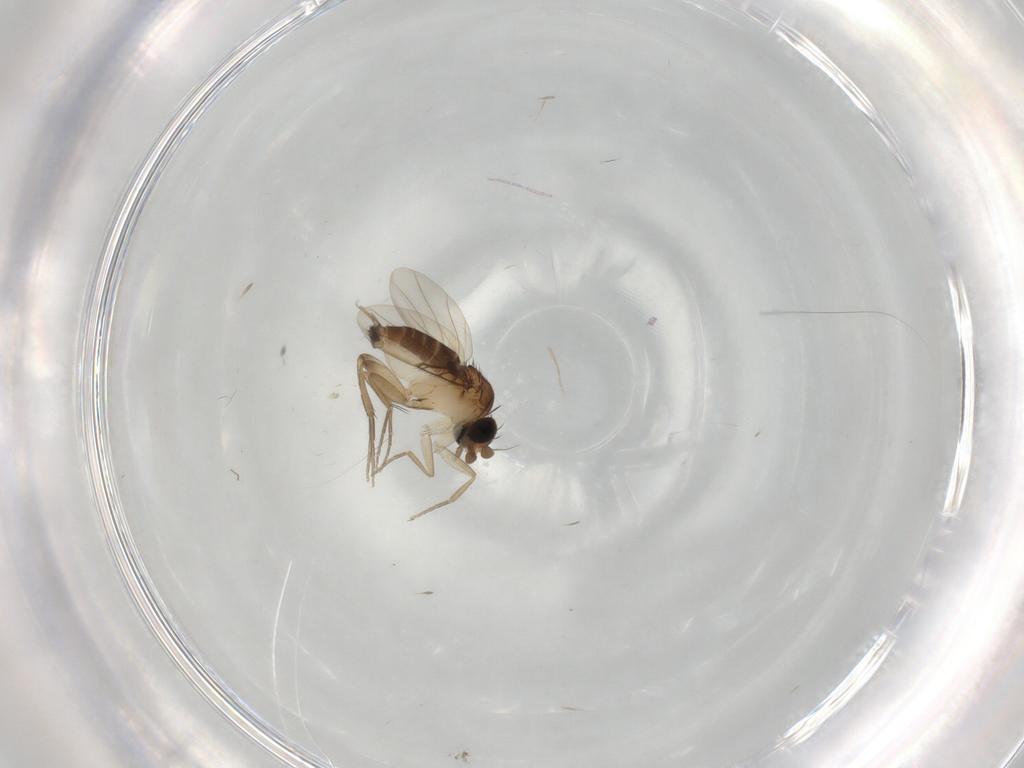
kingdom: Animalia
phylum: Arthropoda
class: Insecta
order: Diptera
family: Phoridae
